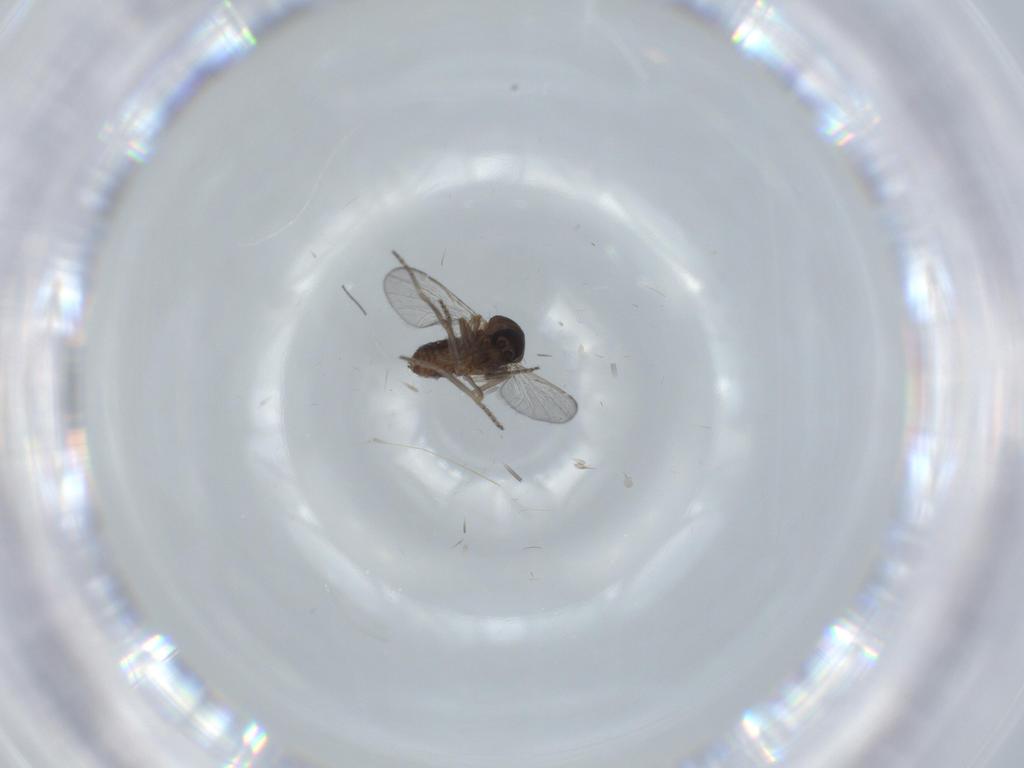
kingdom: Animalia
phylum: Arthropoda
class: Insecta
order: Diptera
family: Ceratopogonidae
